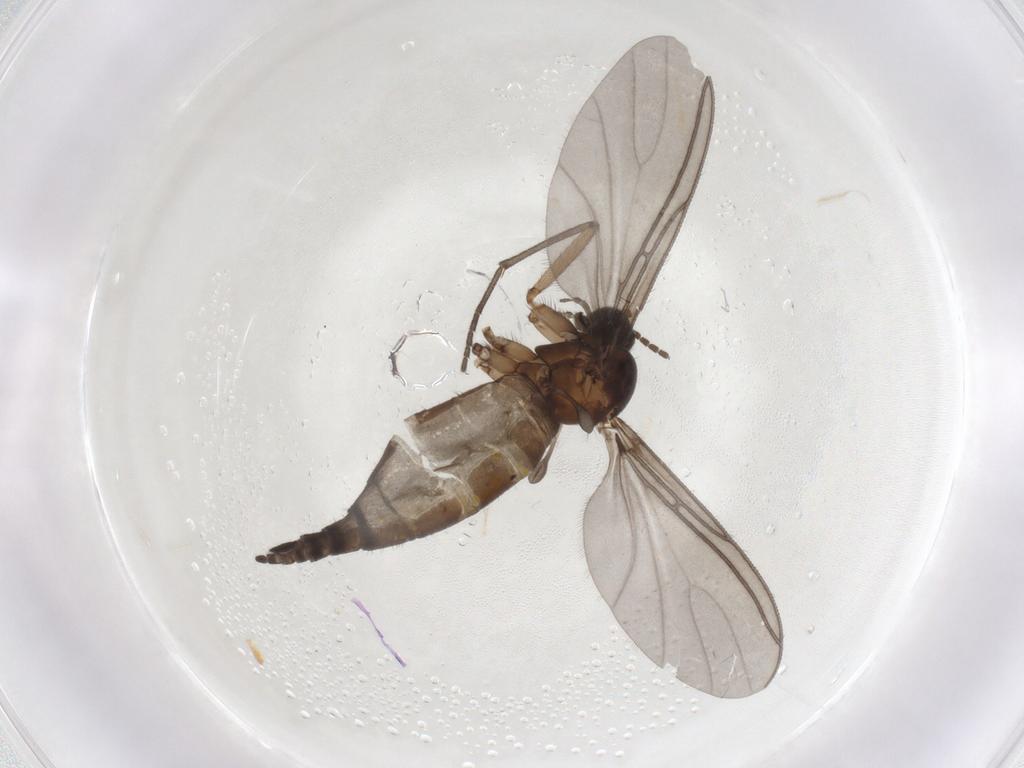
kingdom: Animalia
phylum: Arthropoda
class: Insecta
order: Diptera
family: Sciaridae
